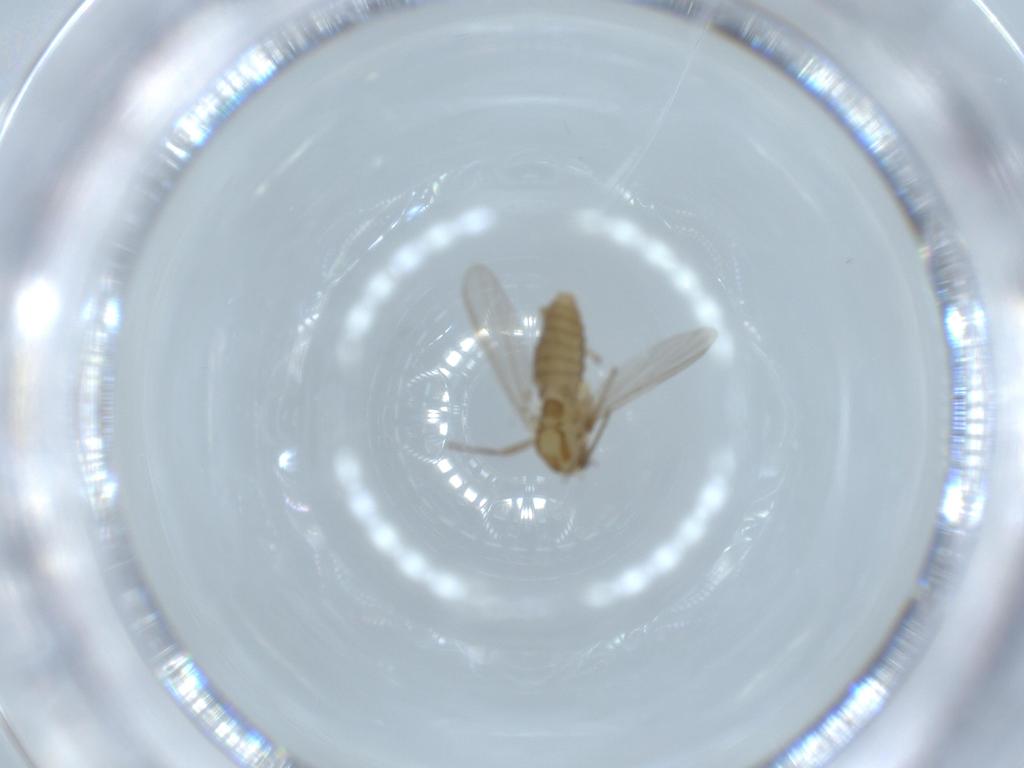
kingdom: Animalia
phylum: Arthropoda
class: Insecta
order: Diptera
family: Chironomidae
